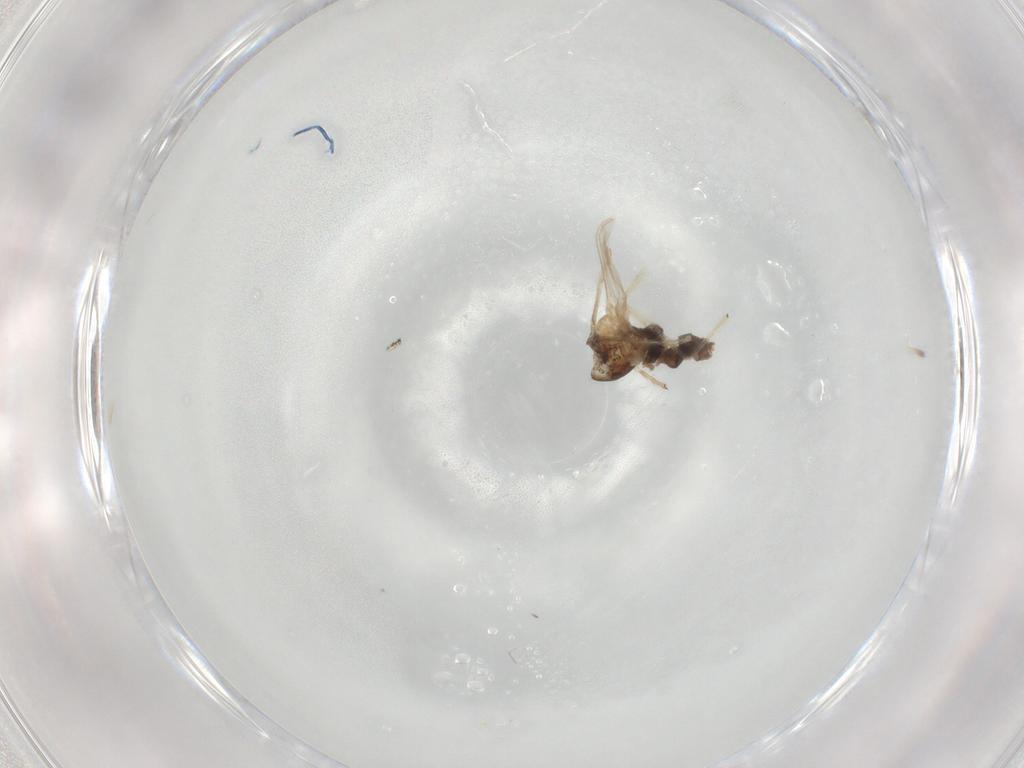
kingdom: Animalia
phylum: Arthropoda
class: Insecta
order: Diptera
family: Chironomidae
